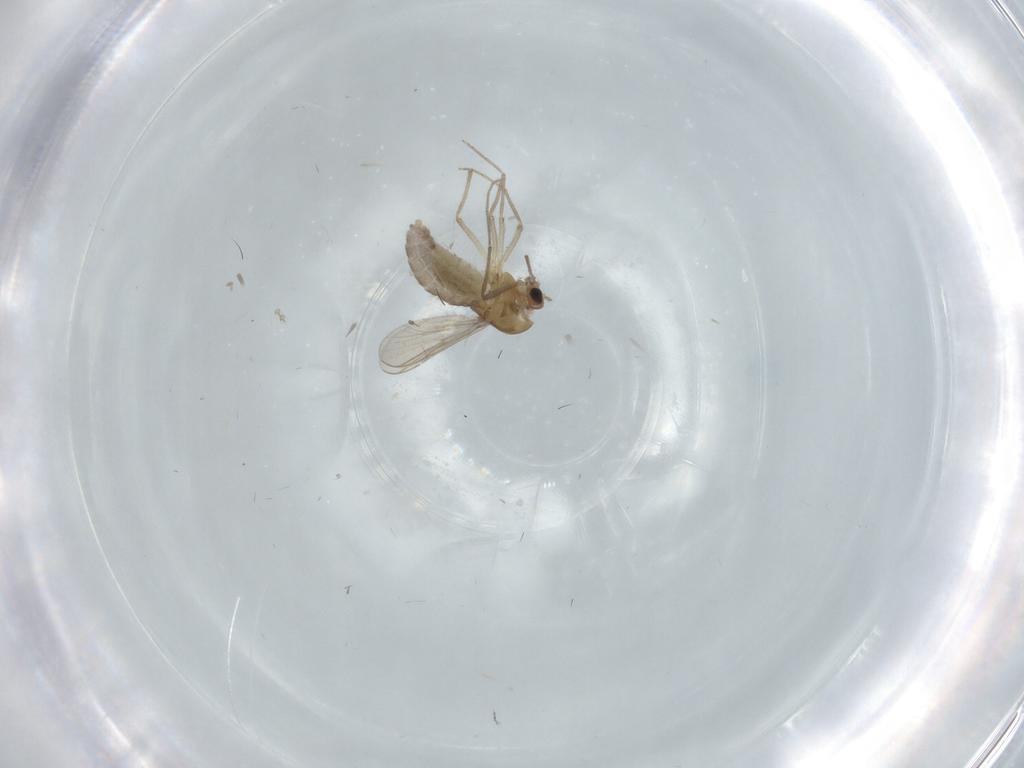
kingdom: Animalia
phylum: Arthropoda
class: Insecta
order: Diptera
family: Chironomidae
